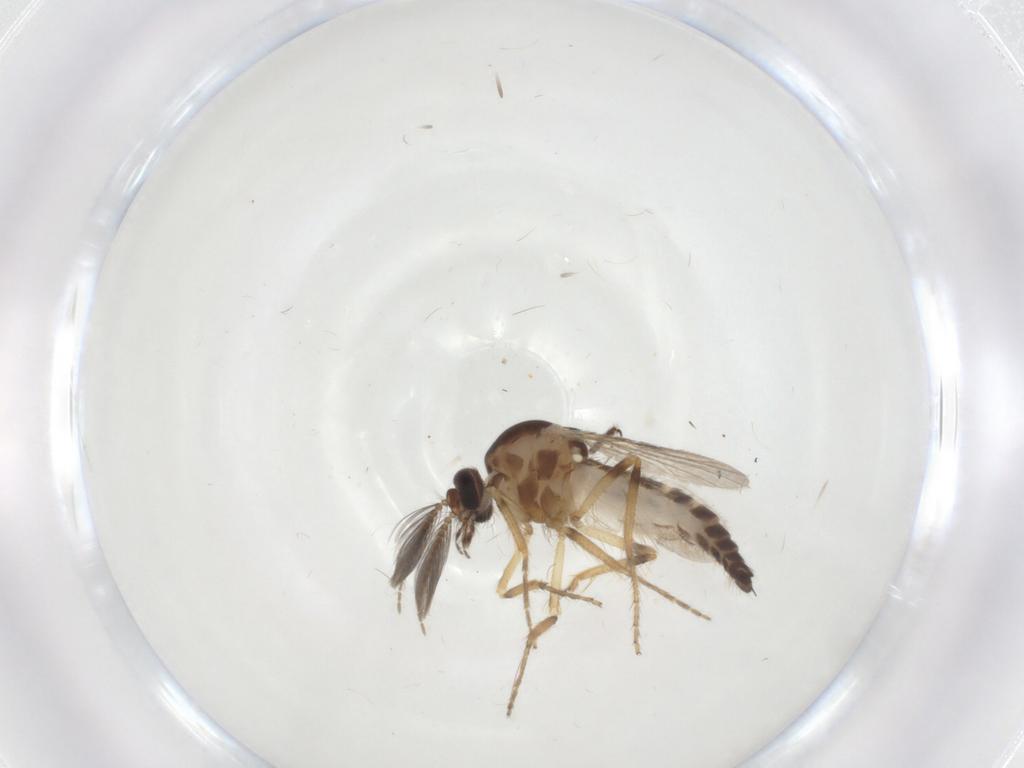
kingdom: Animalia
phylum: Arthropoda
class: Insecta
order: Diptera
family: Ceratopogonidae
